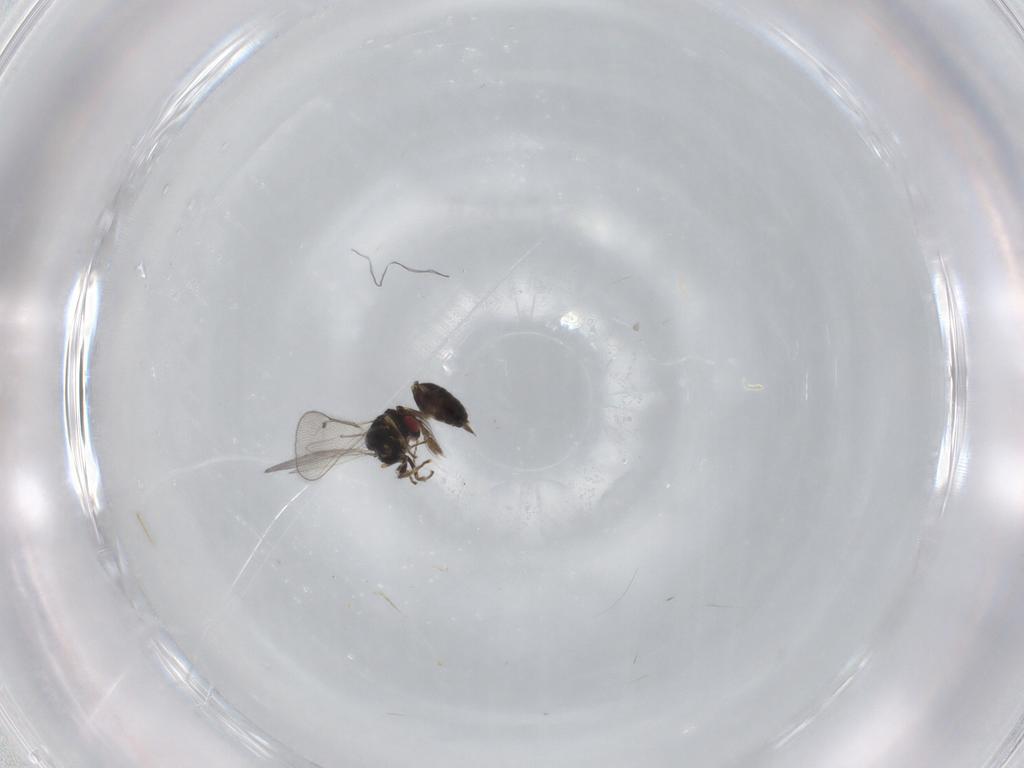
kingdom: Animalia
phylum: Arthropoda
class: Insecta
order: Hymenoptera
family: Eulophidae
